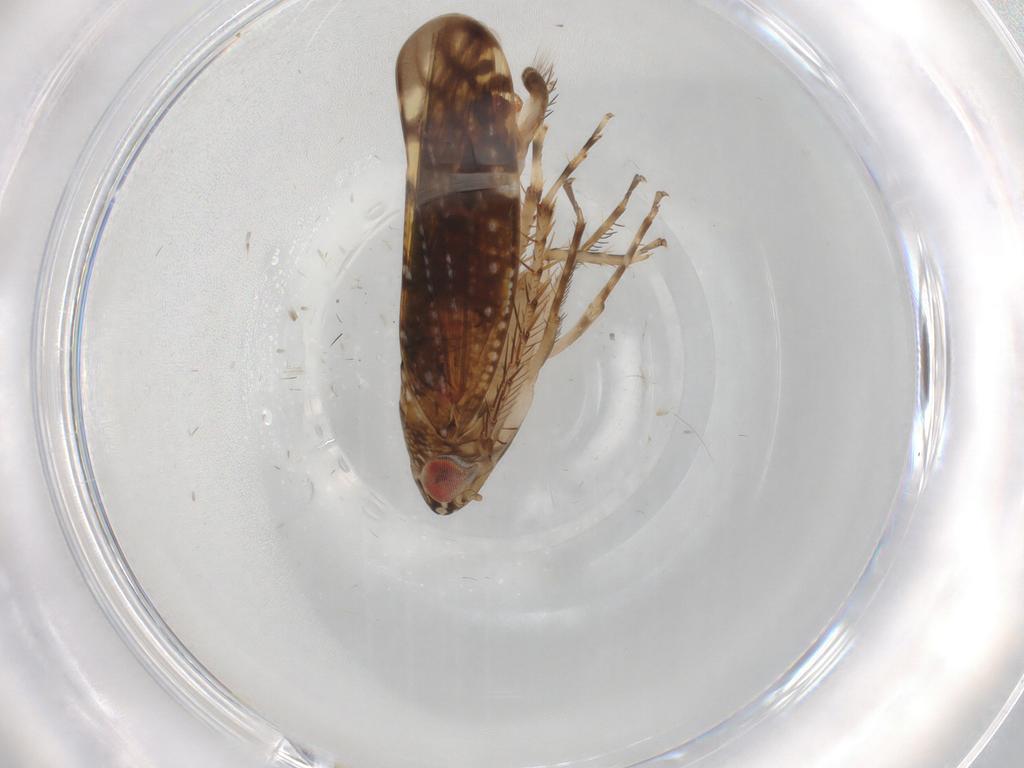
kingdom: Animalia
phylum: Arthropoda
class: Insecta
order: Hemiptera
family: Cicadellidae
